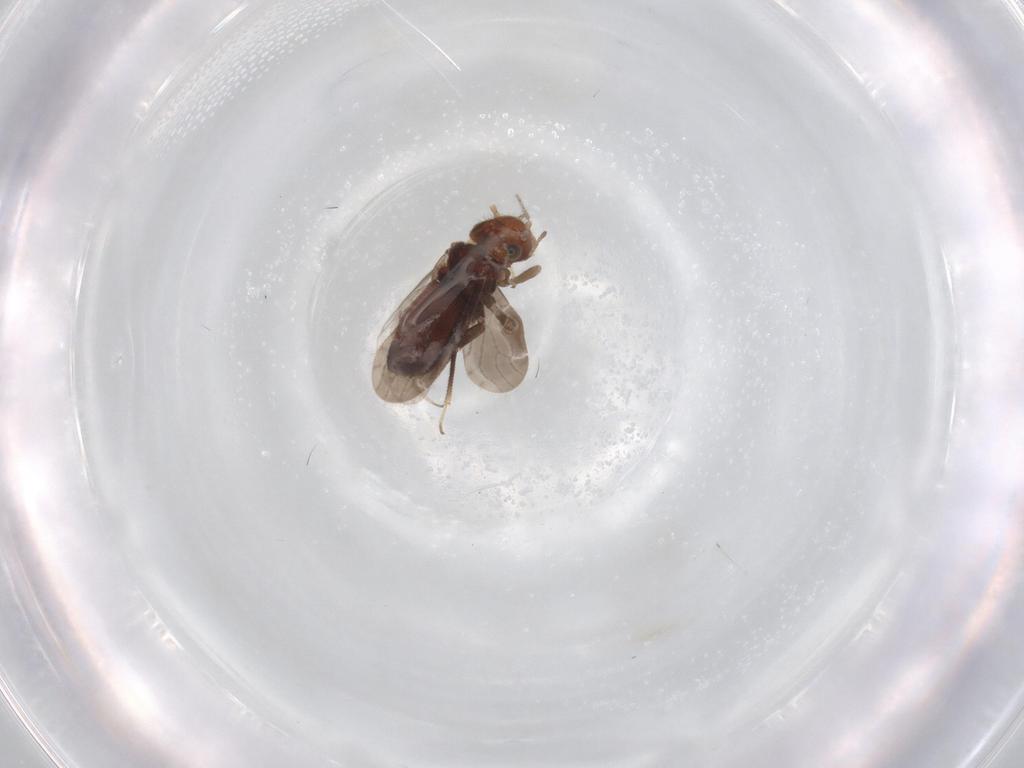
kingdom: Animalia
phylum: Arthropoda
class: Insecta
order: Psocodea
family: Ectopsocidae
